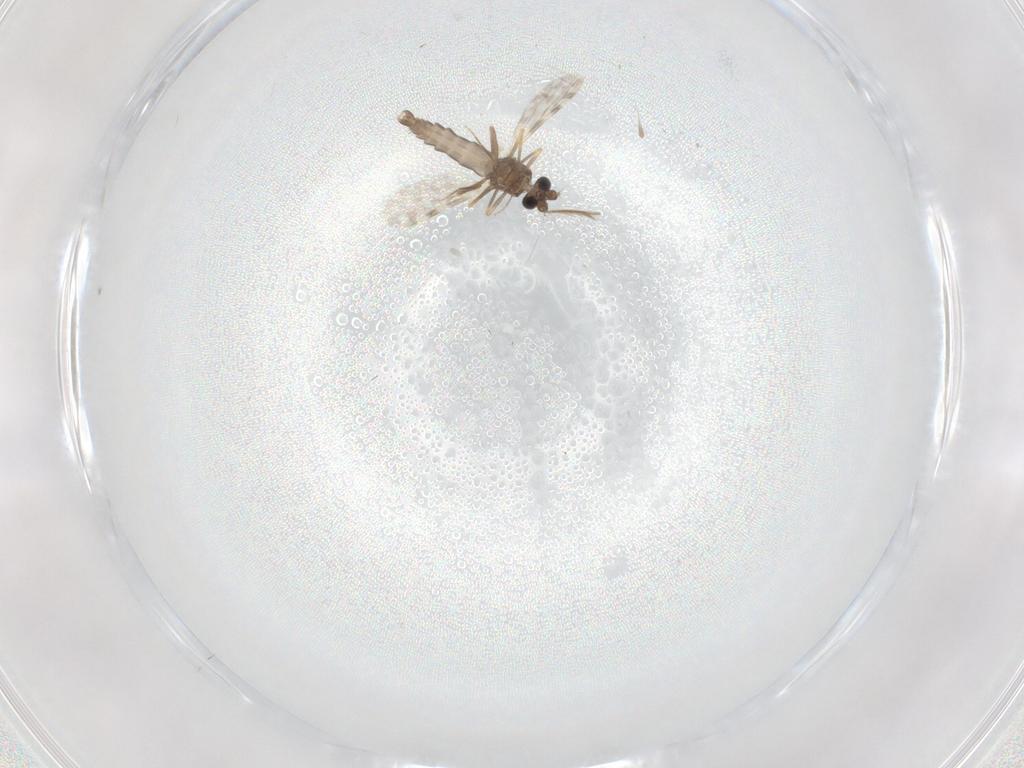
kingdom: Animalia
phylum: Arthropoda
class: Insecta
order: Diptera
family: Ceratopogonidae
